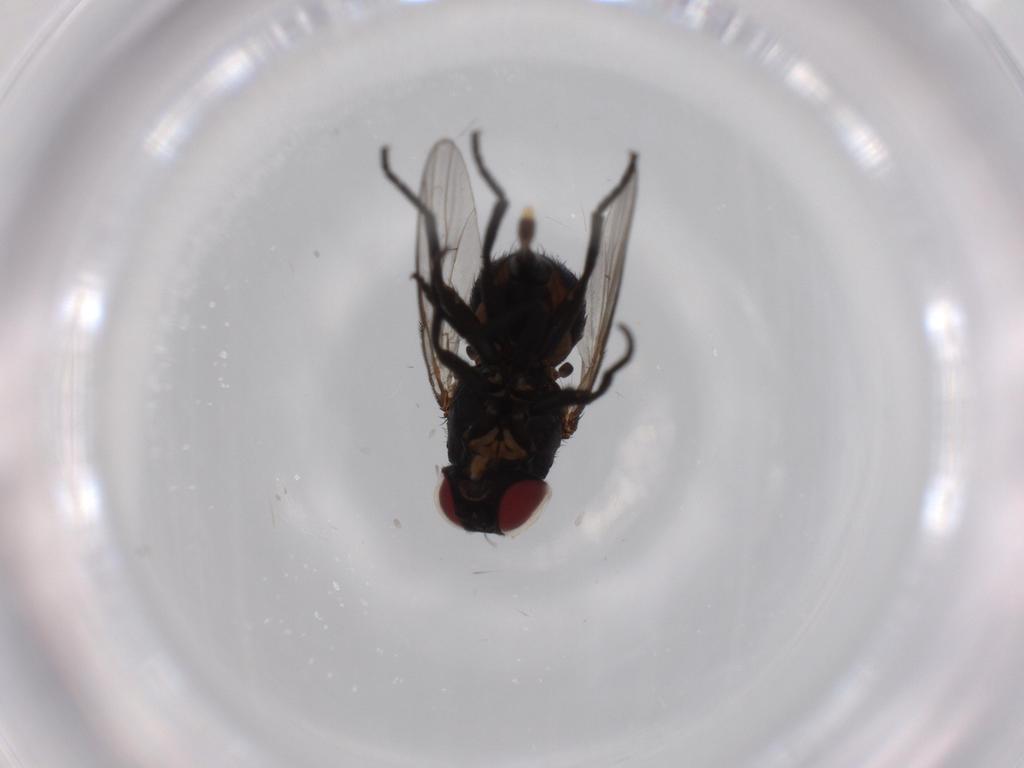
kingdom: Animalia
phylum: Arthropoda
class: Insecta
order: Diptera
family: Agromyzidae
